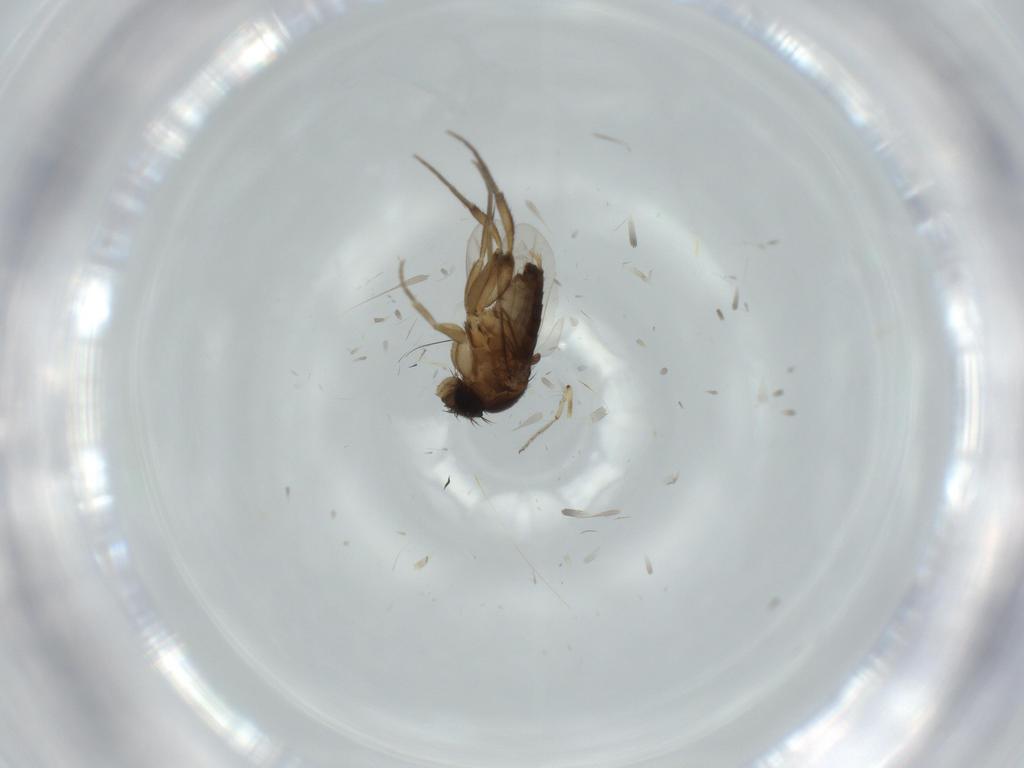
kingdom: Animalia
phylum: Arthropoda
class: Insecta
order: Diptera
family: Phoridae
